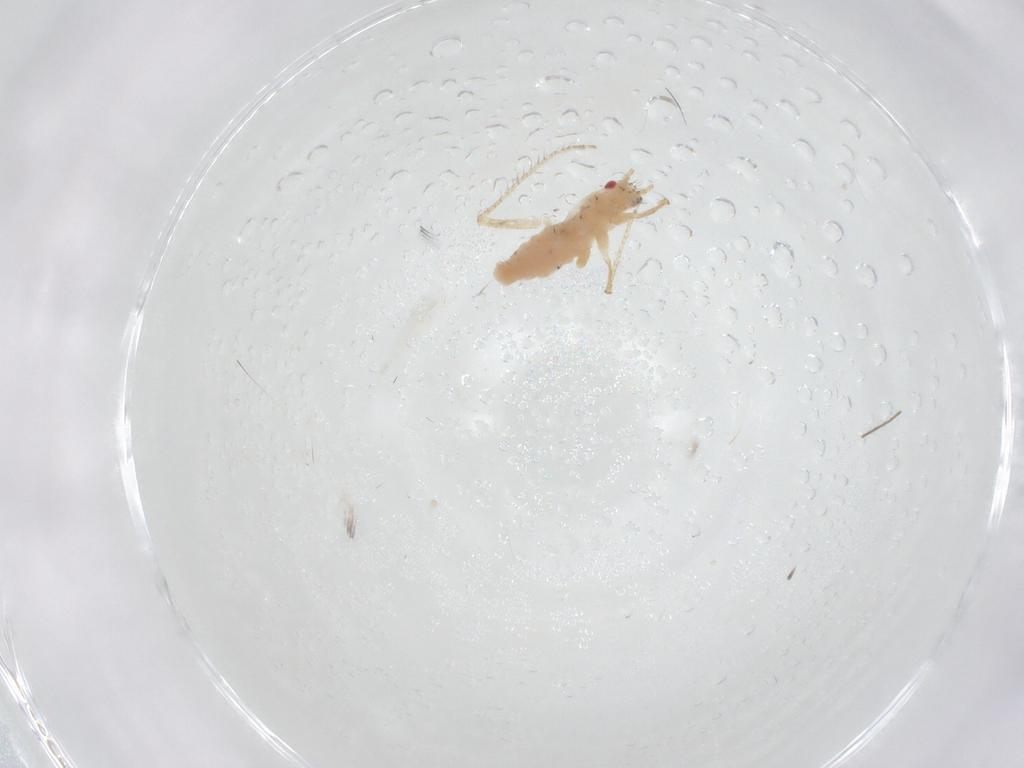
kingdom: Animalia
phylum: Arthropoda
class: Insecta
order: Hemiptera
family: Aphididae
